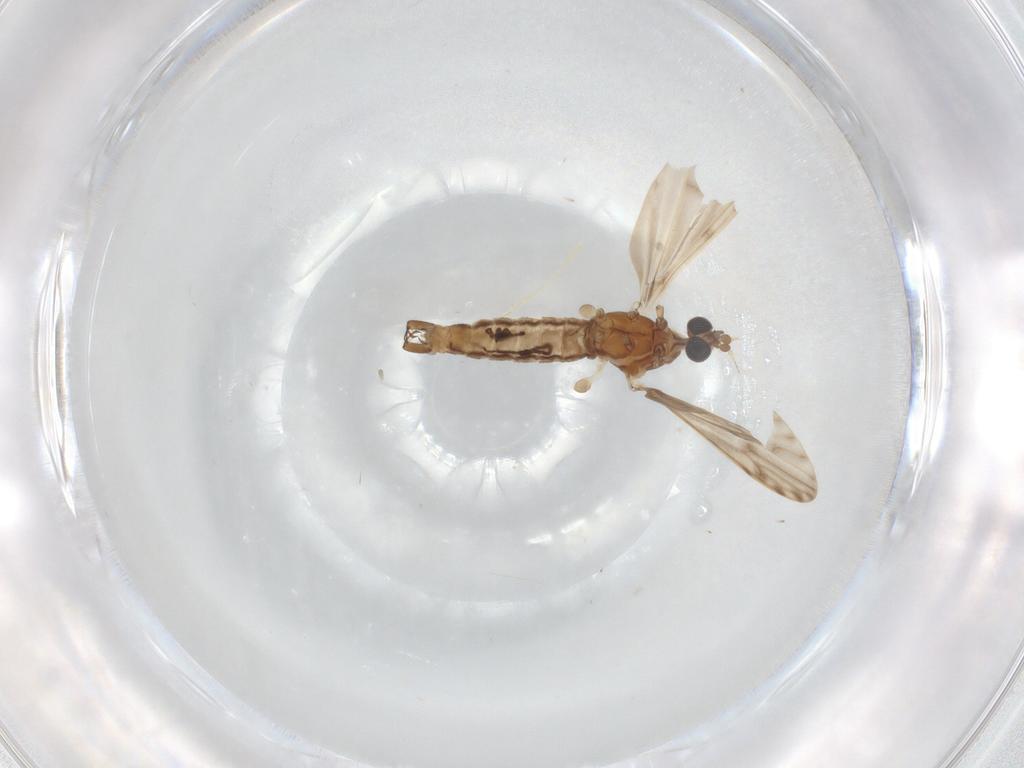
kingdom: Animalia
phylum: Arthropoda
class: Insecta
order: Diptera
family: Limoniidae
